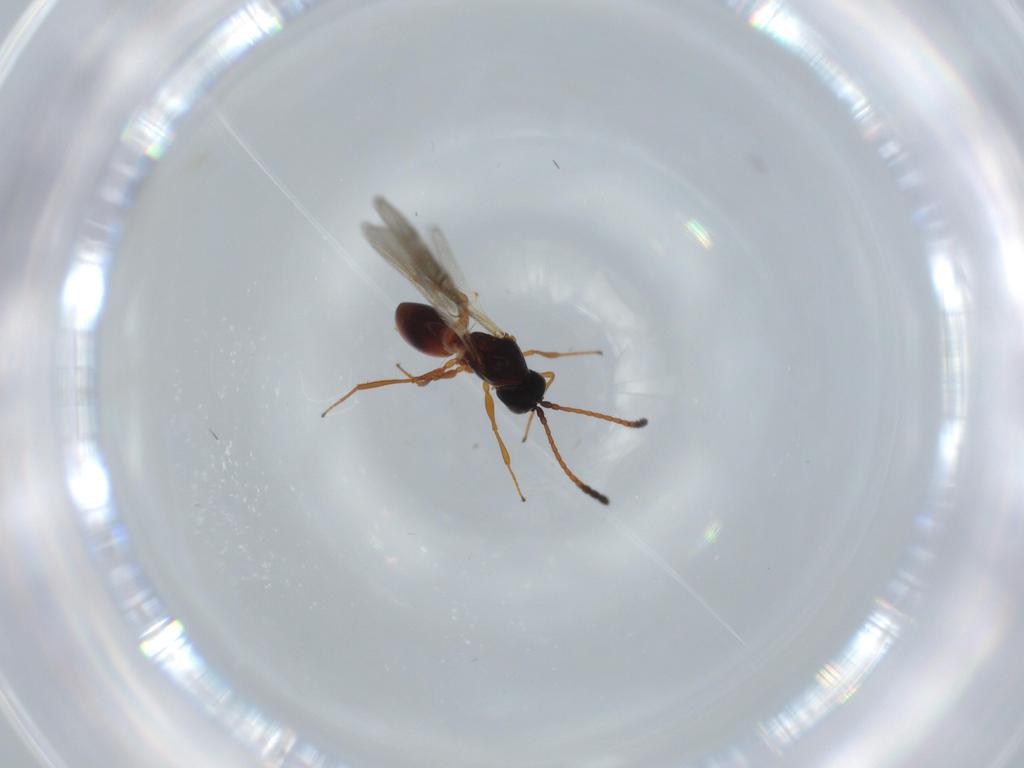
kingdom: Animalia
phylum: Arthropoda
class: Insecta
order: Hymenoptera
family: Figitidae
